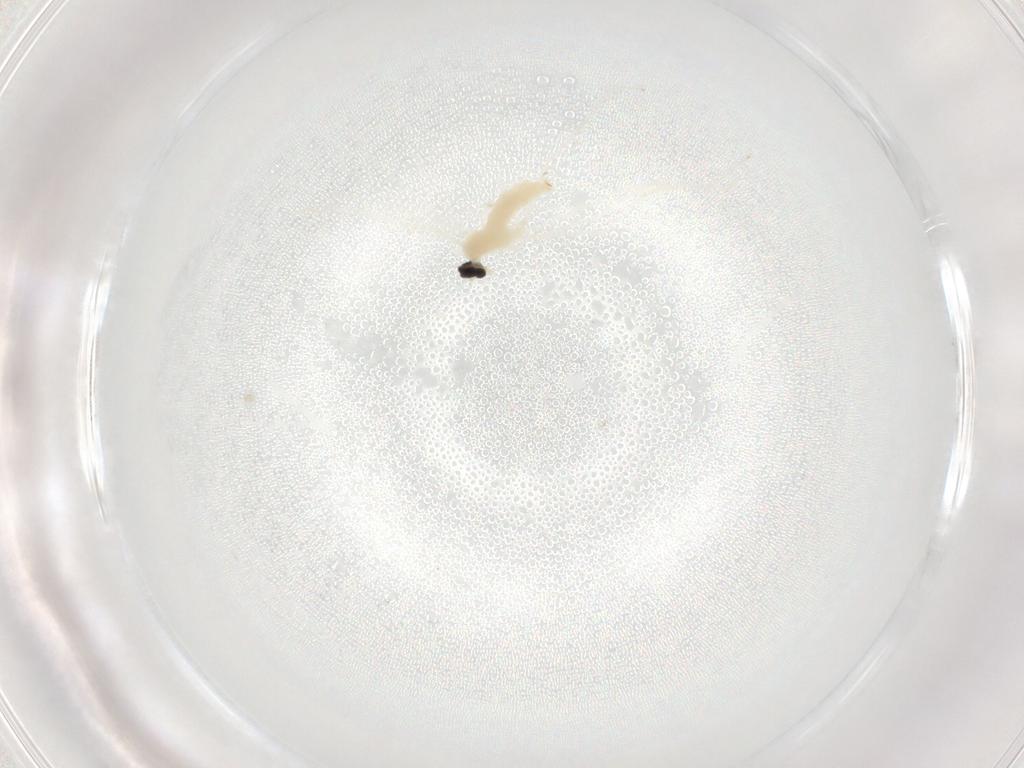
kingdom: Animalia
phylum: Arthropoda
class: Insecta
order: Diptera
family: Cecidomyiidae
